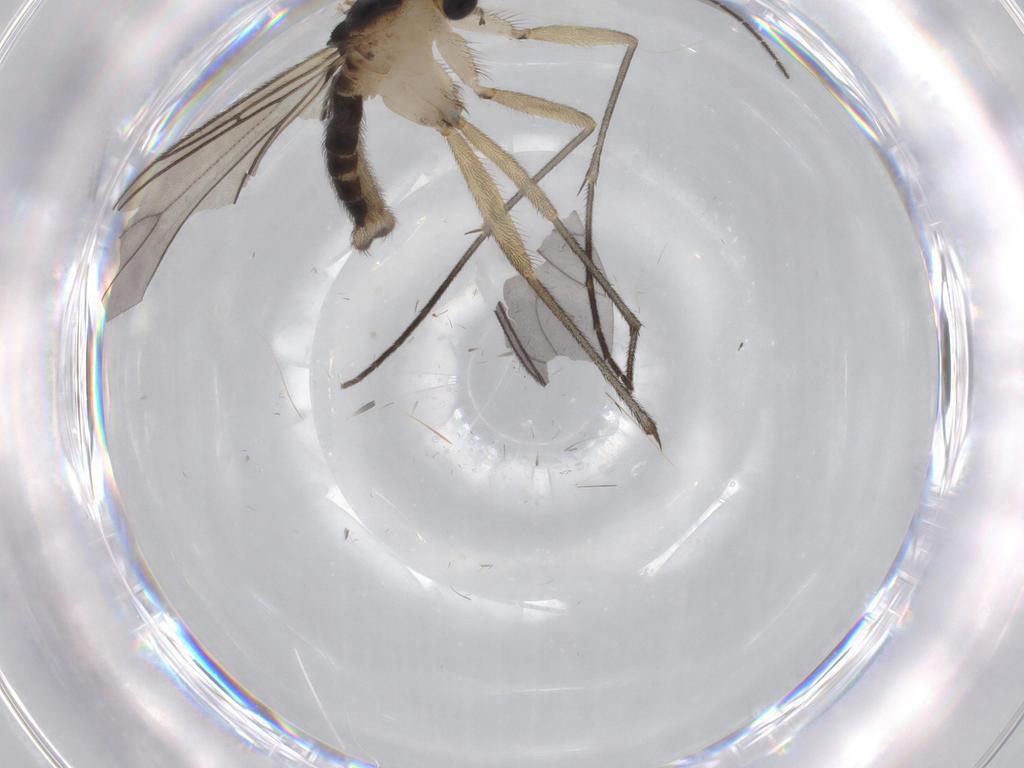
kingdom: Animalia
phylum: Arthropoda
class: Insecta
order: Diptera
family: Sciaridae
